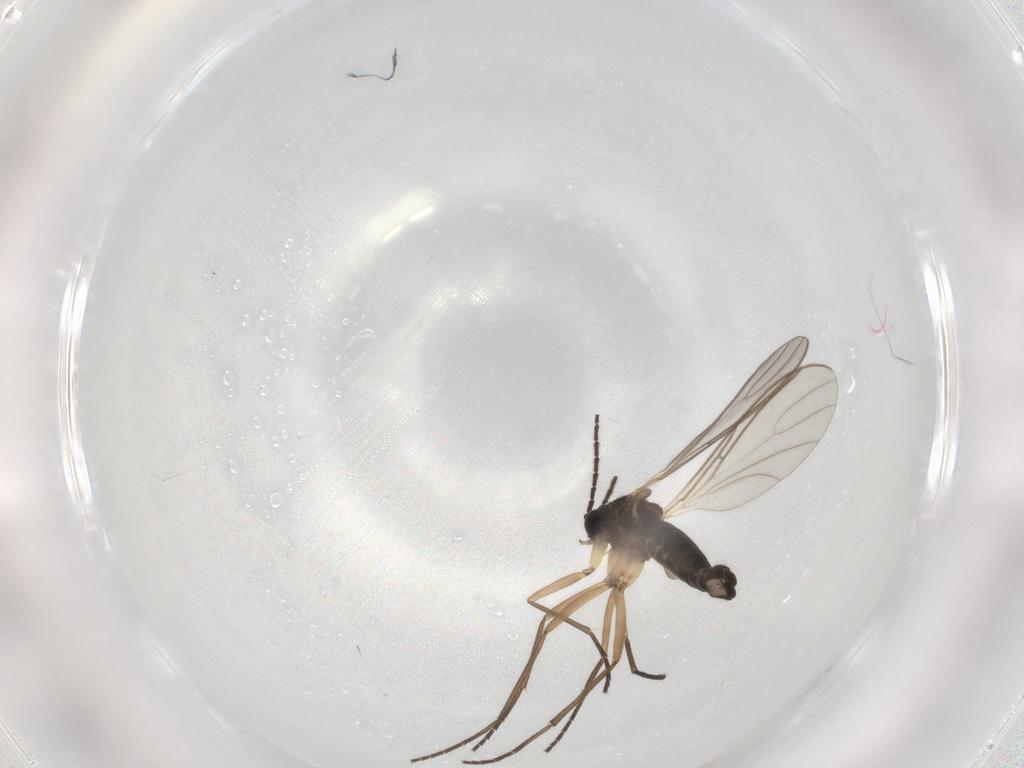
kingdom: Animalia
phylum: Arthropoda
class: Insecta
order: Diptera
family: Sciaridae
